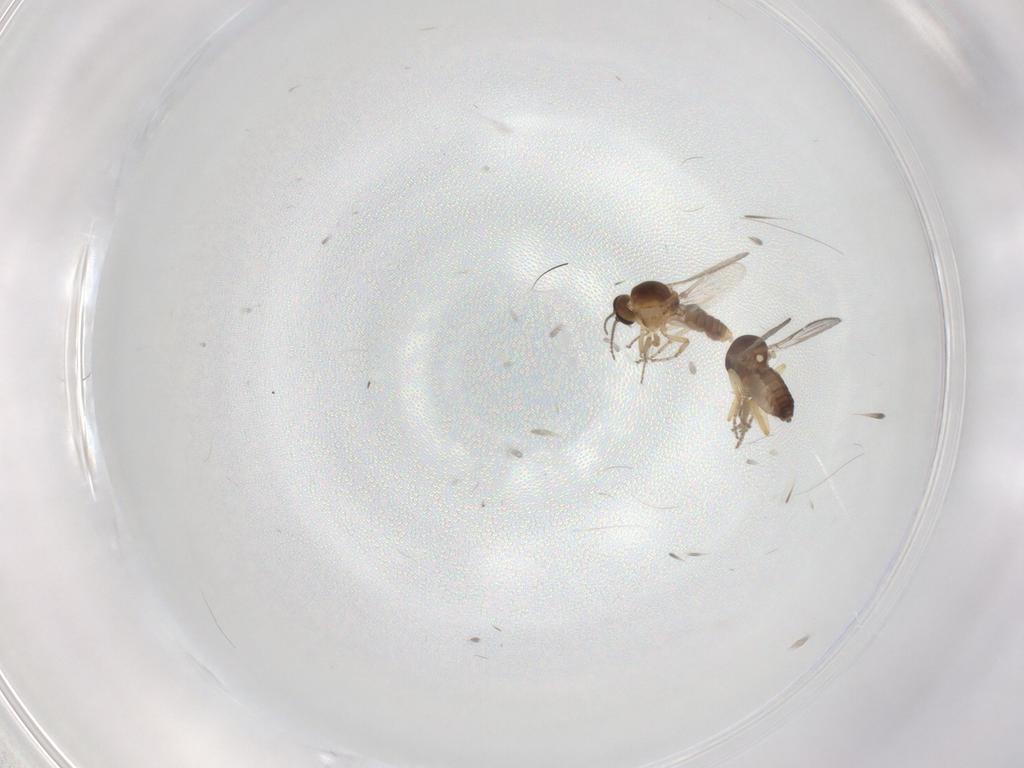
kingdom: Animalia
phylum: Arthropoda
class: Insecta
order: Diptera
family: Ceratopogonidae
